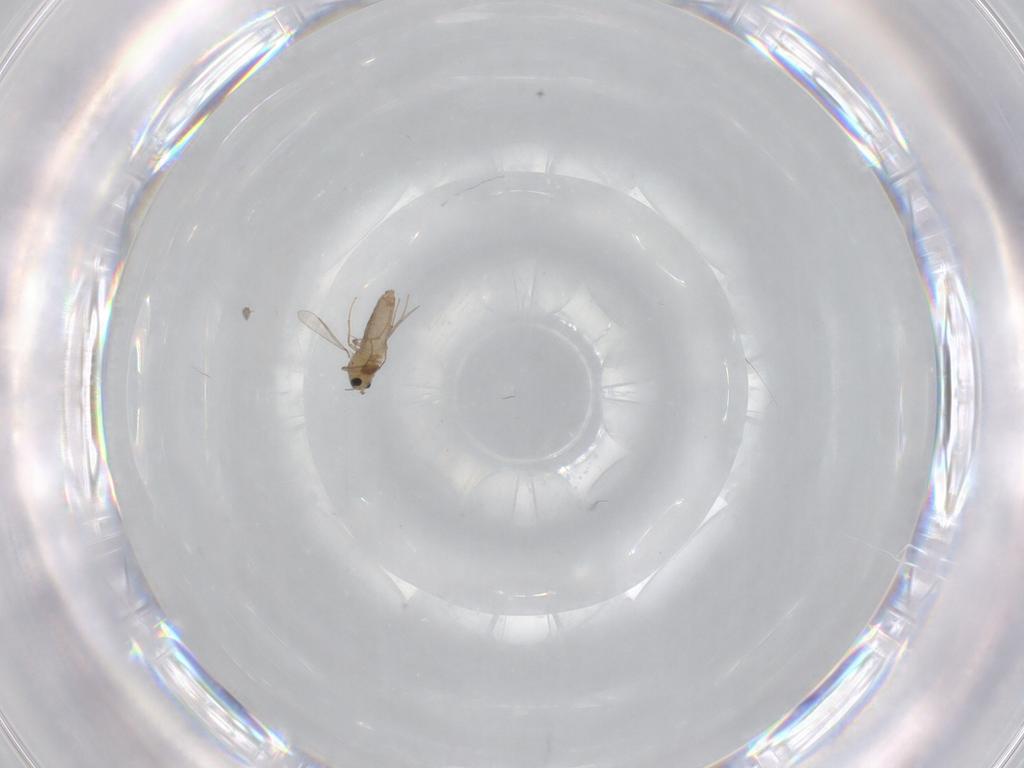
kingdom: Animalia
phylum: Arthropoda
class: Insecta
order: Diptera
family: Chironomidae
